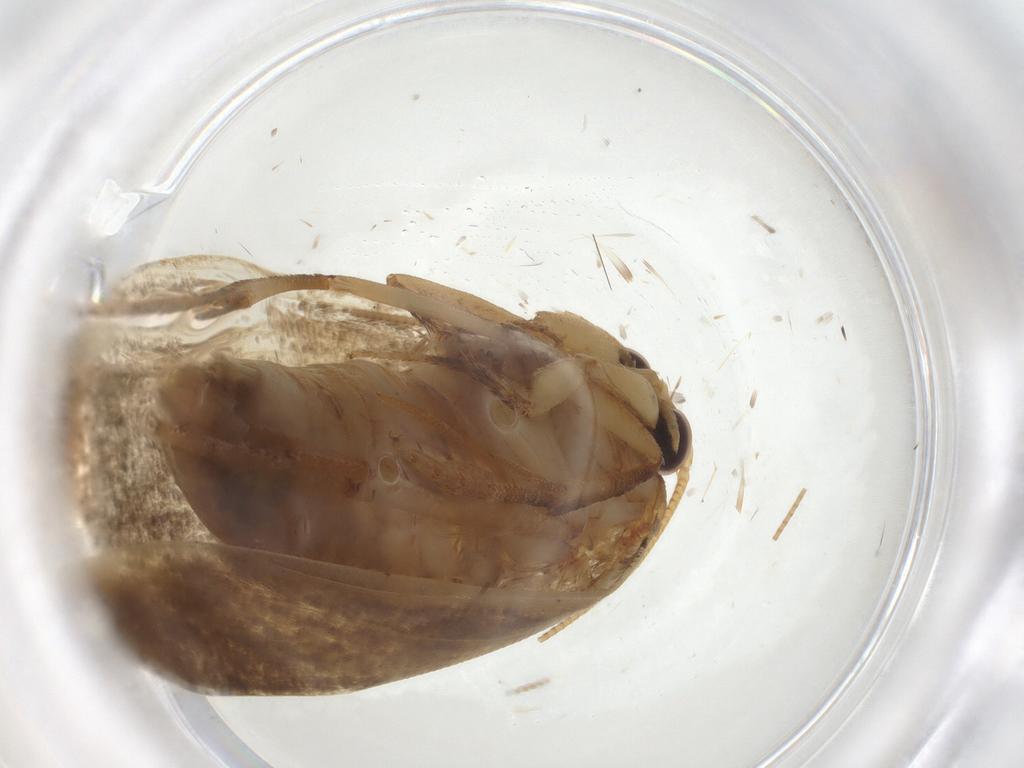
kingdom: Animalia
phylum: Arthropoda
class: Insecta
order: Lepidoptera
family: Tineidae
